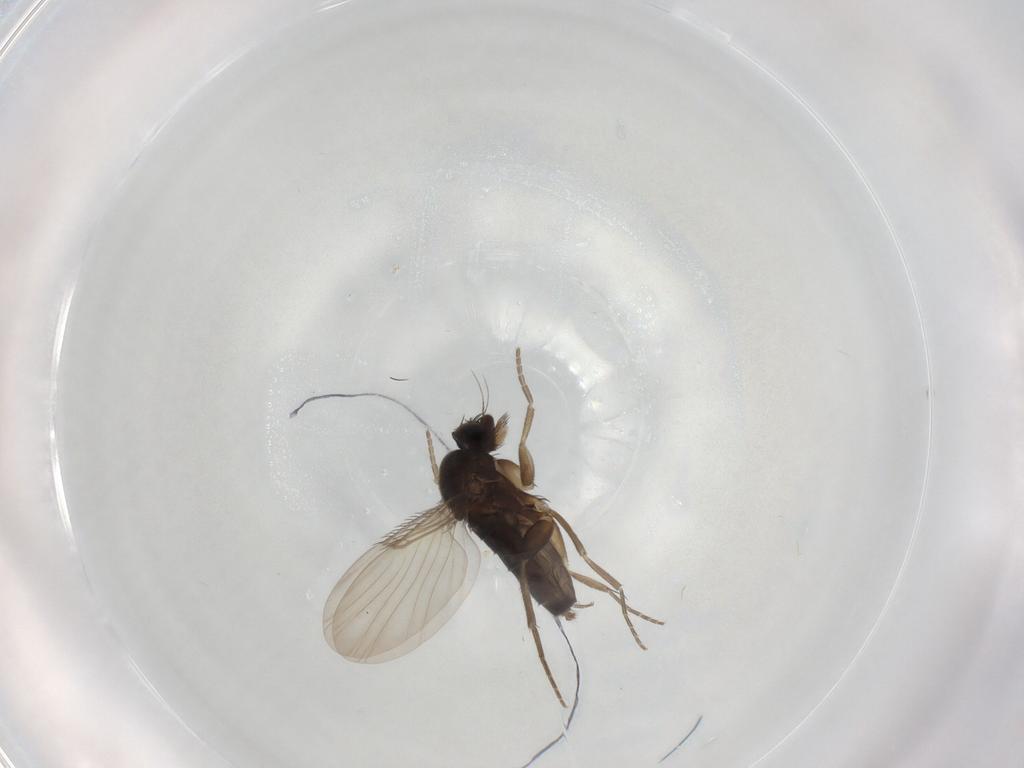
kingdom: Animalia
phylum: Arthropoda
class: Insecta
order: Diptera
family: Phoridae
